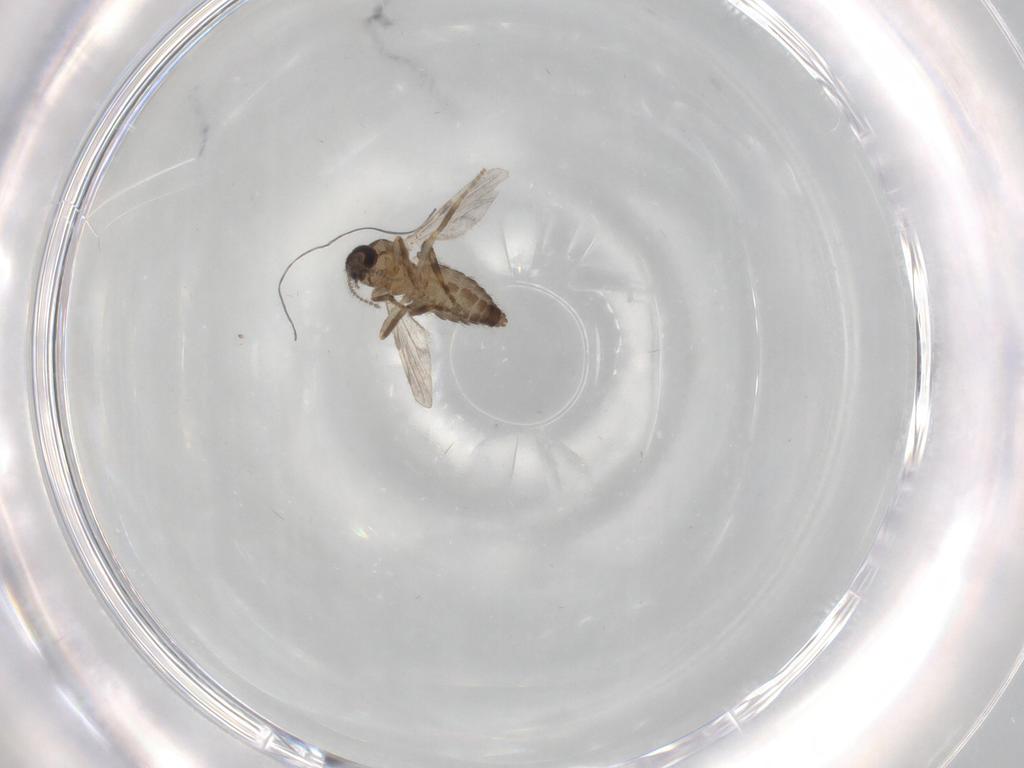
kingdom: Animalia
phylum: Arthropoda
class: Insecta
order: Diptera
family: Ceratopogonidae
